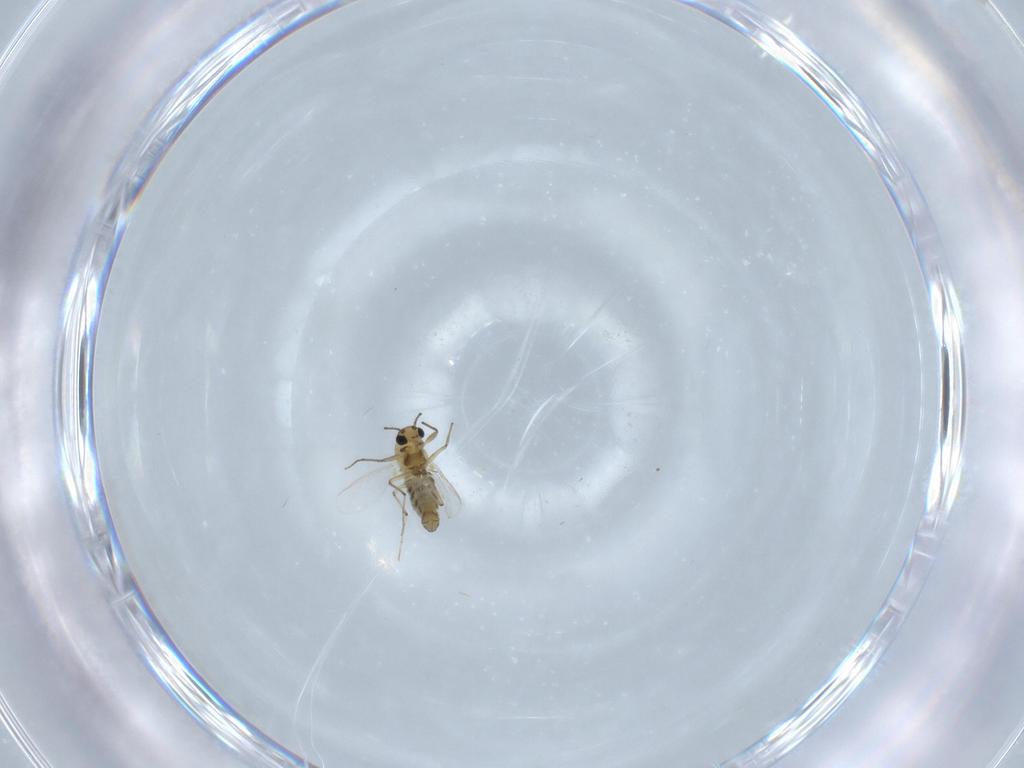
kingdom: Animalia
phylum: Arthropoda
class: Insecta
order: Diptera
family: Chironomidae
